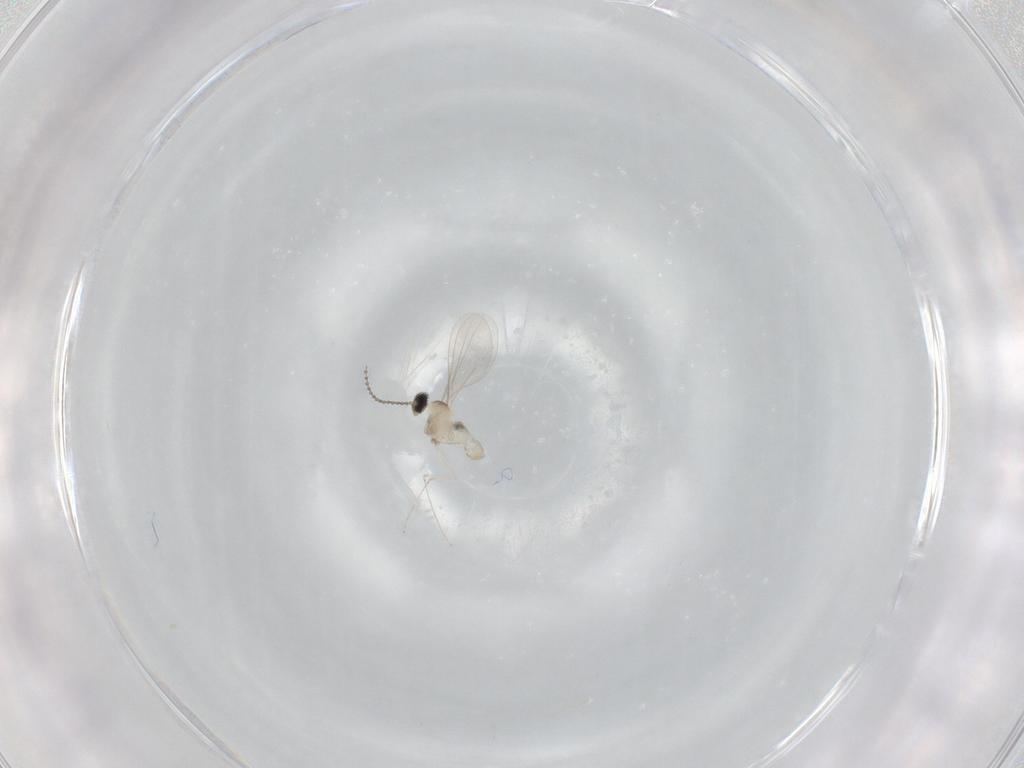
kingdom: Animalia
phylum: Arthropoda
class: Insecta
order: Diptera
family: Cecidomyiidae
